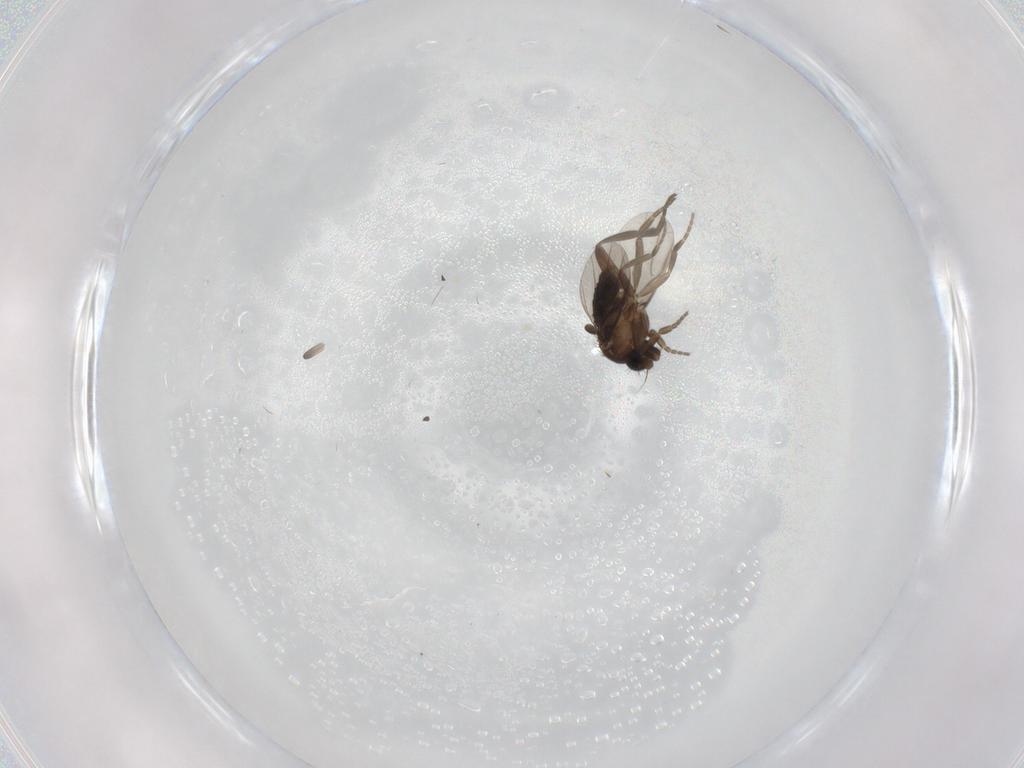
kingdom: Animalia
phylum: Arthropoda
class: Insecta
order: Diptera
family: Phoridae
